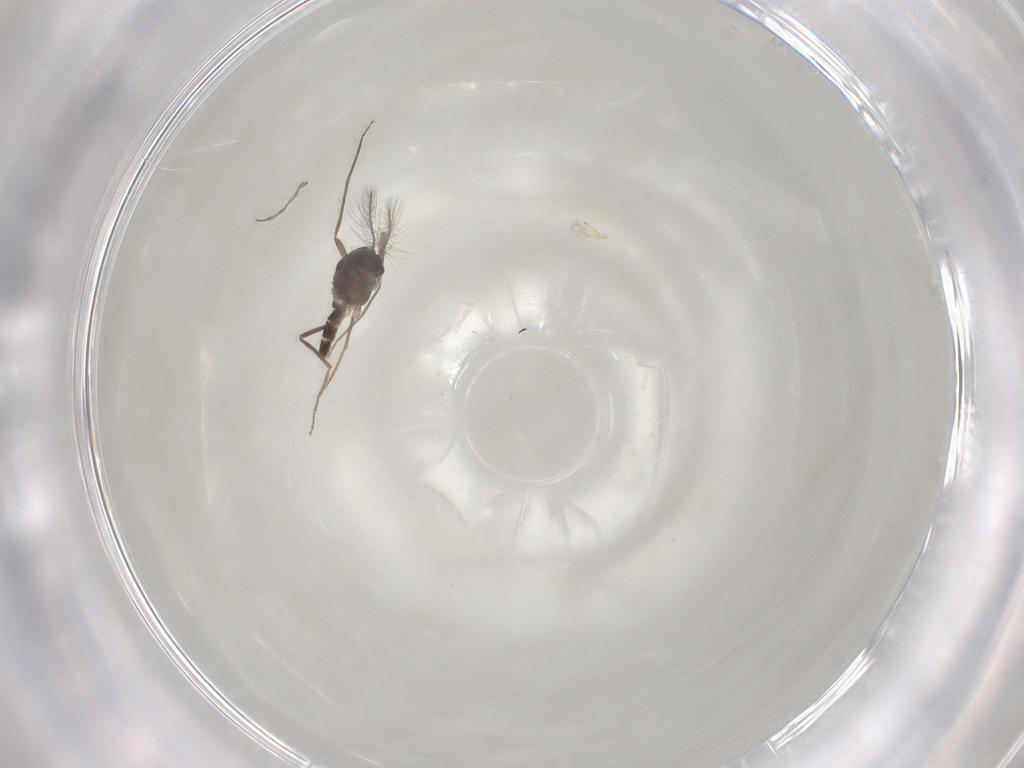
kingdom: Animalia
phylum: Arthropoda
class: Insecta
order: Diptera
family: Chironomidae
